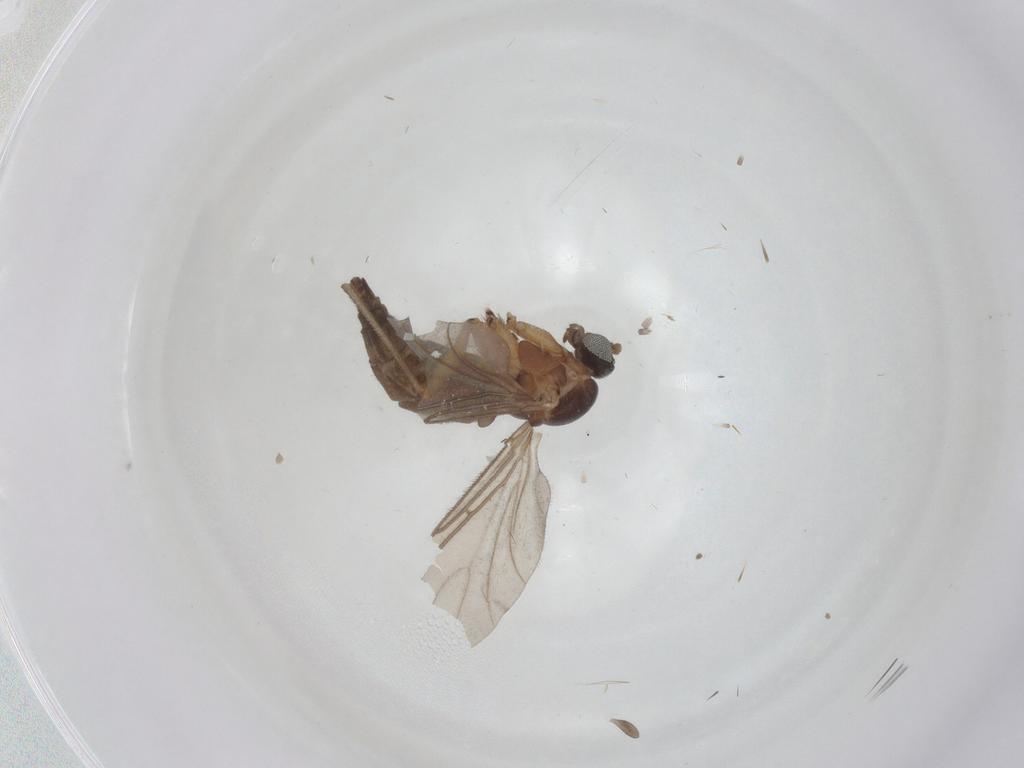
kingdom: Animalia
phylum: Arthropoda
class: Insecta
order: Diptera
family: Sciaridae
